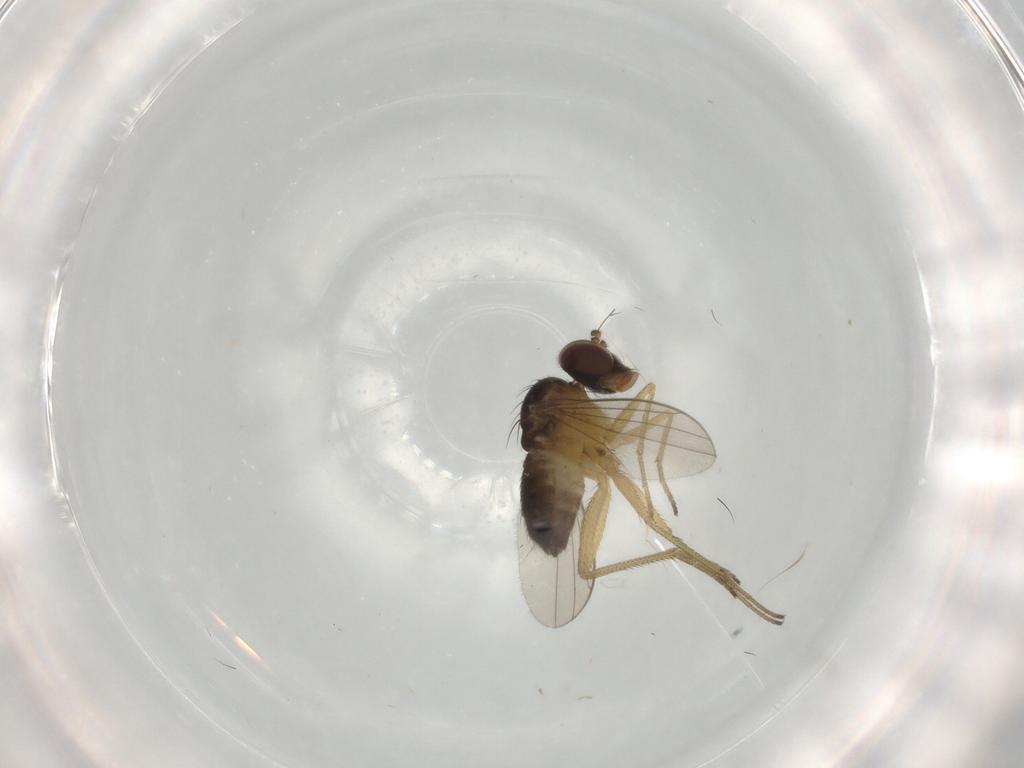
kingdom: Animalia
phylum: Arthropoda
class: Insecta
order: Diptera
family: Dolichopodidae
